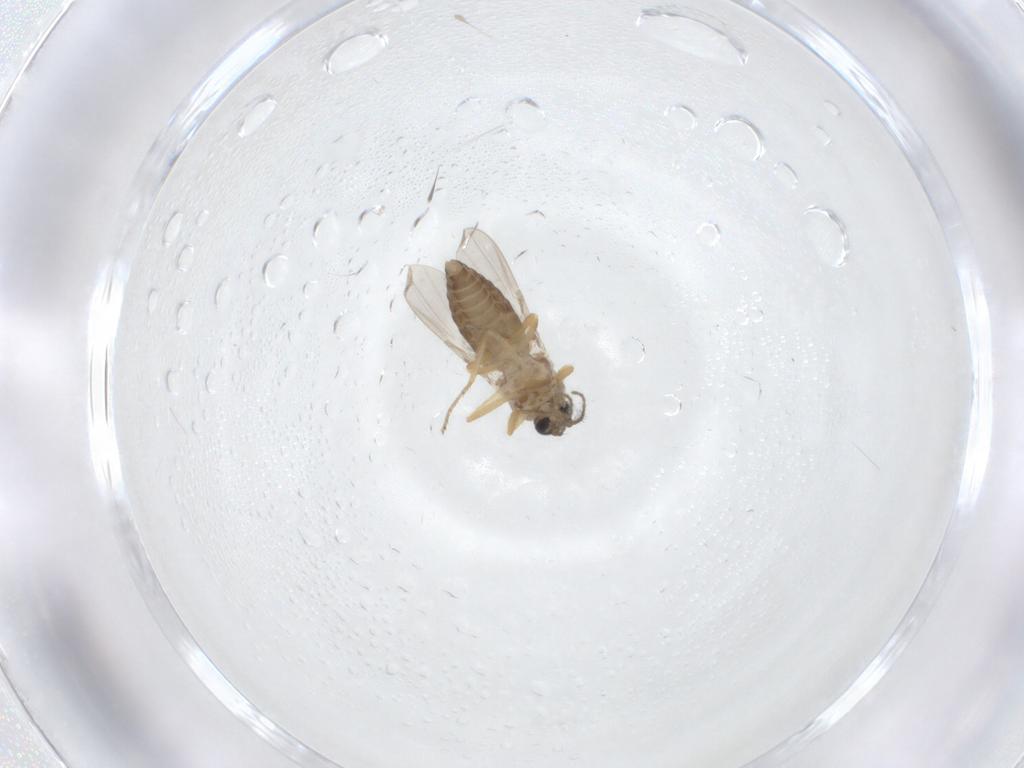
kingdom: Animalia
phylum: Arthropoda
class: Insecta
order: Diptera
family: Ceratopogonidae
